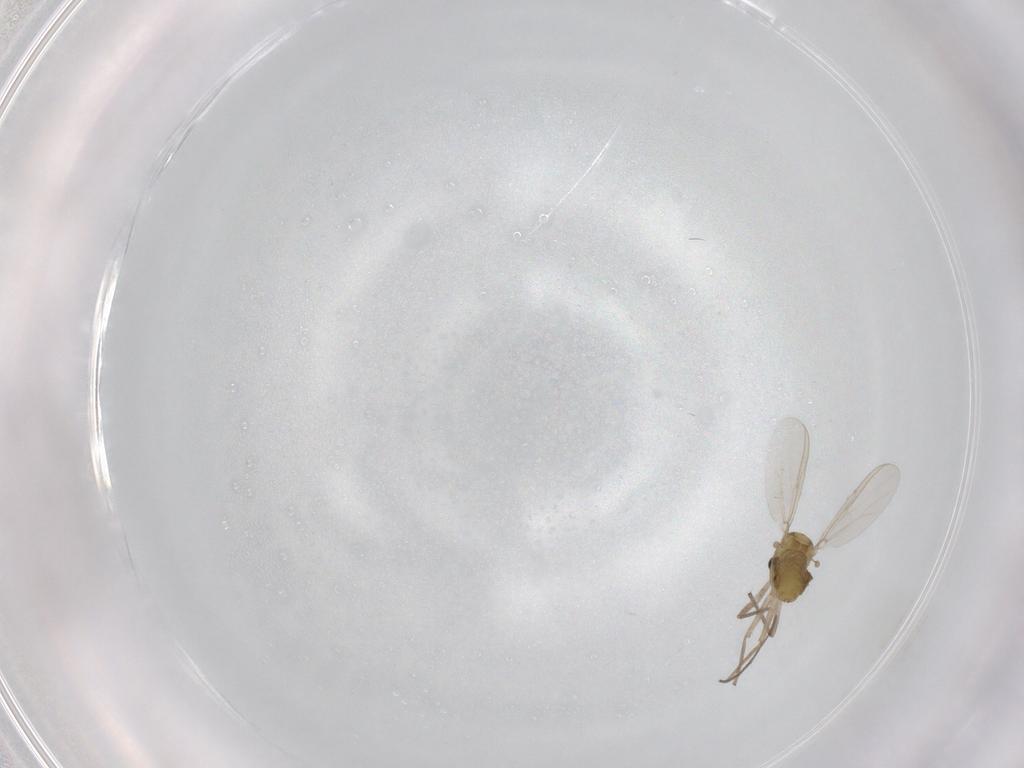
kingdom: Animalia
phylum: Arthropoda
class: Insecta
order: Diptera
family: Chironomidae
